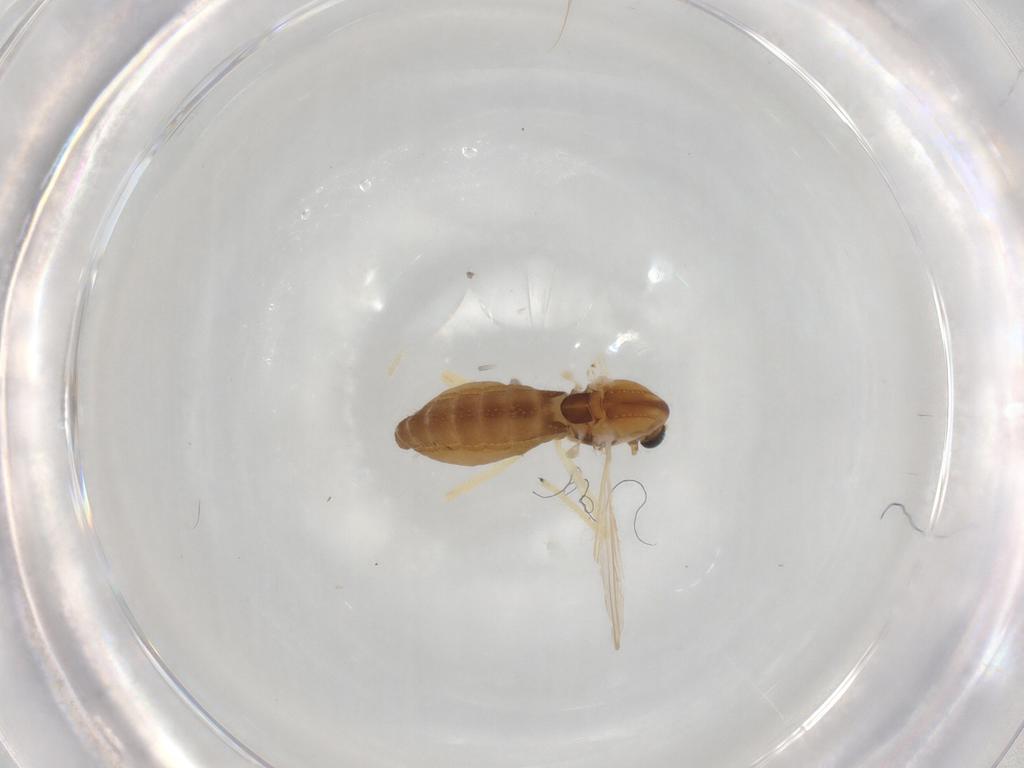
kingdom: Animalia
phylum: Arthropoda
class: Insecta
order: Diptera
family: Chironomidae
